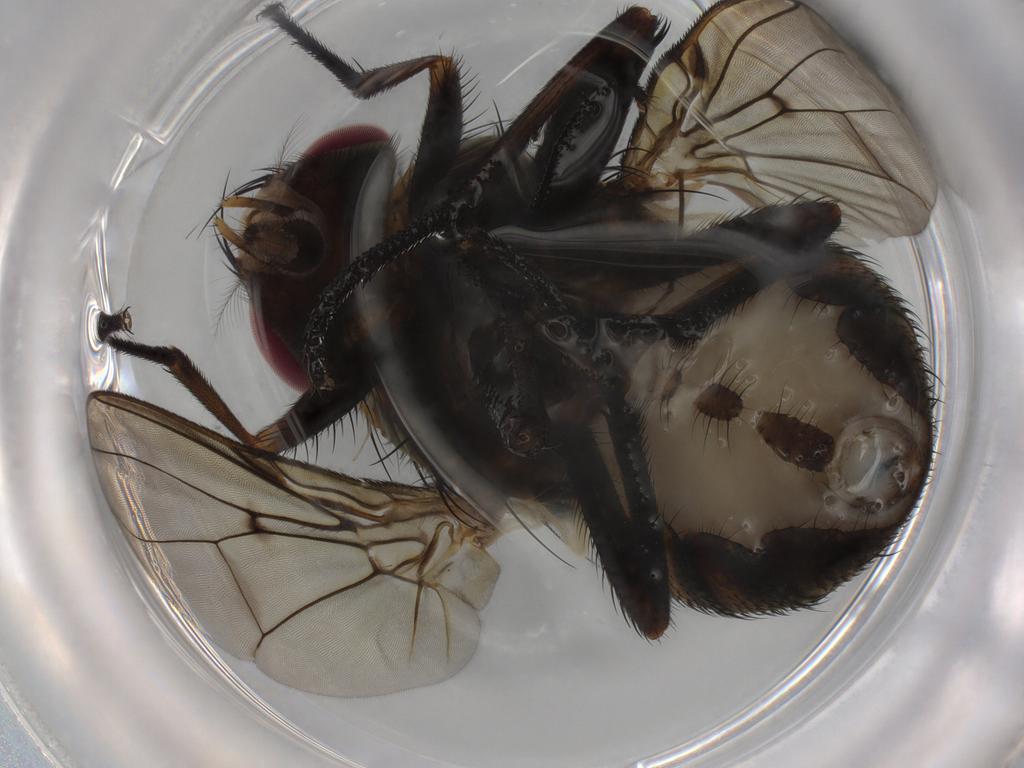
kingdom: Animalia
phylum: Arthropoda
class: Insecta
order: Diptera
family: Muscidae
